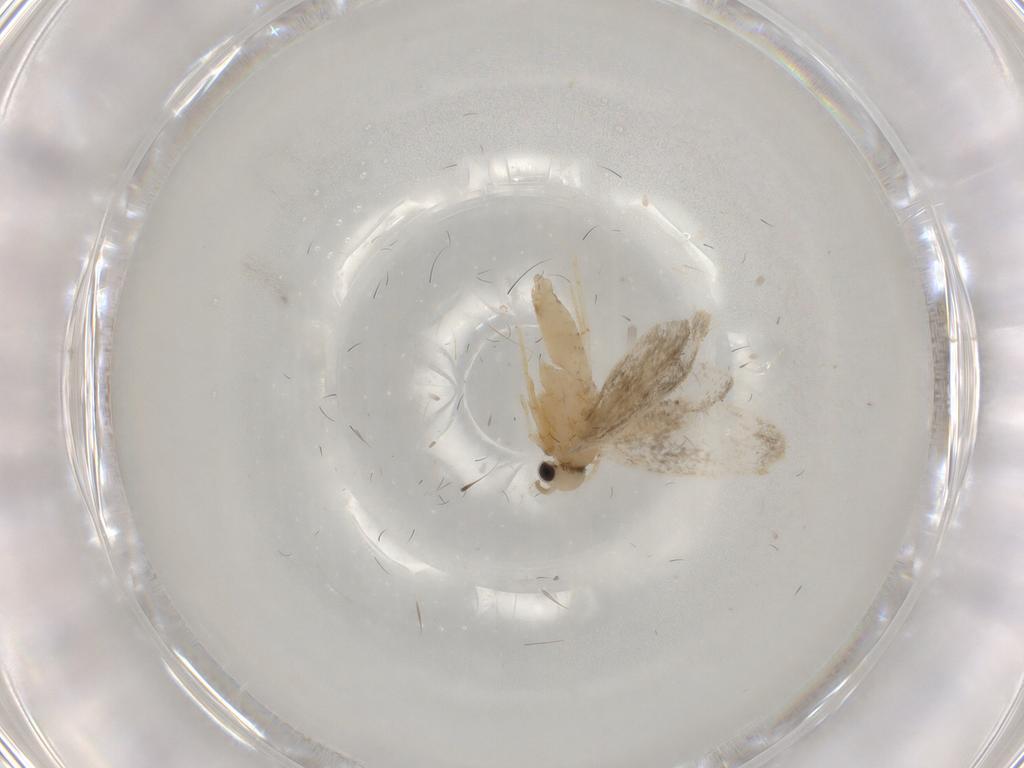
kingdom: Animalia
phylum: Arthropoda
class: Insecta
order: Lepidoptera
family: Psychidae
